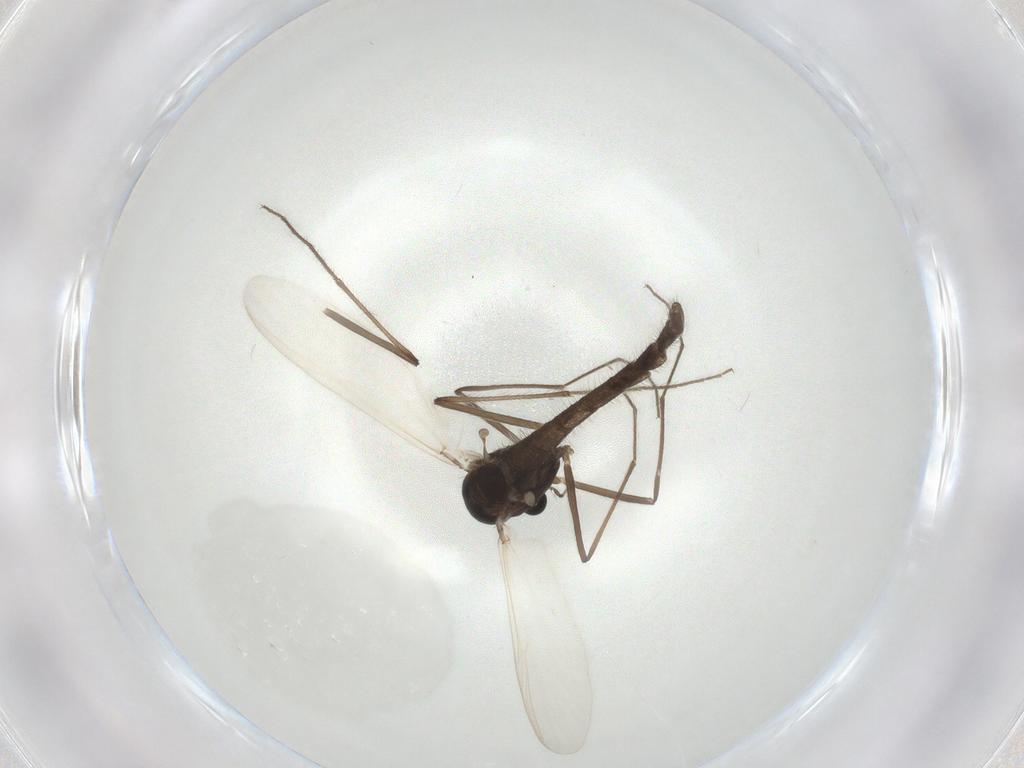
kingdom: Animalia
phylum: Arthropoda
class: Insecta
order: Diptera
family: Chironomidae
